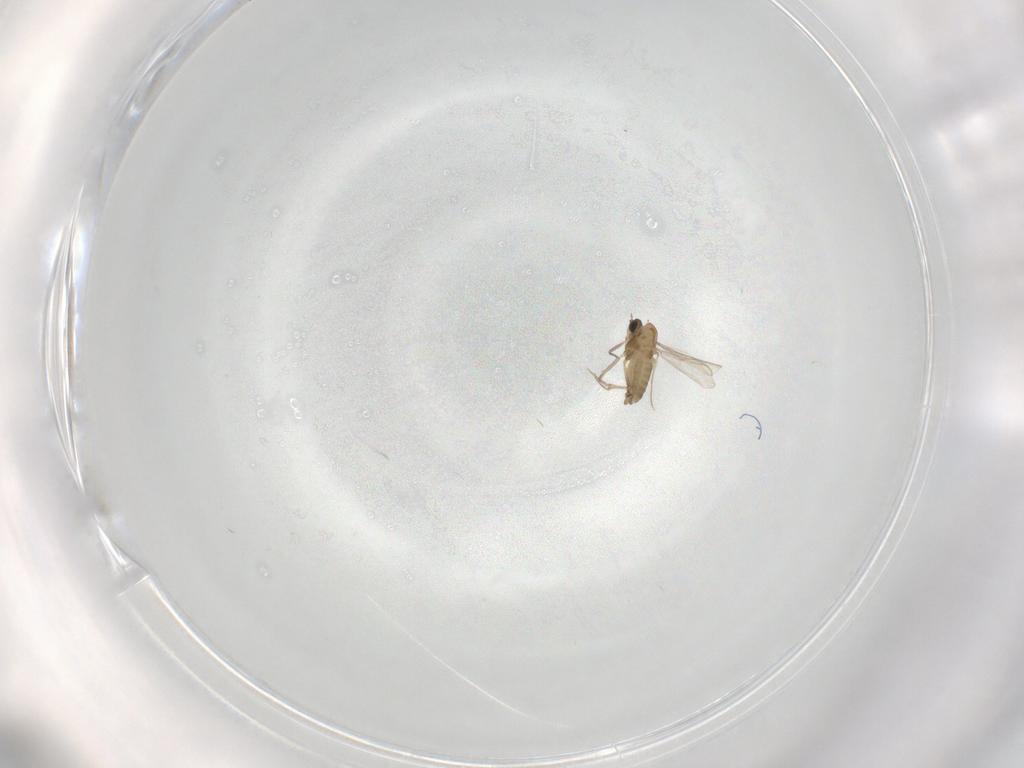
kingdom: Animalia
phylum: Arthropoda
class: Insecta
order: Diptera
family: Chironomidae
